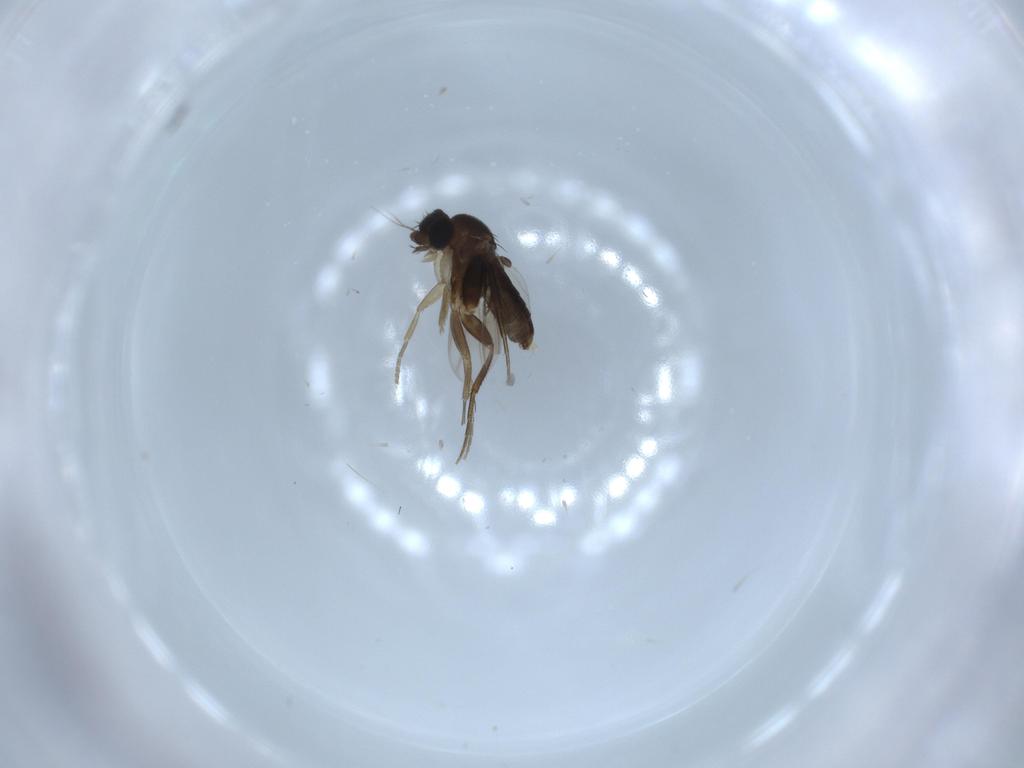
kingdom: Animalia
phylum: Arthropoda
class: Insecta
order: Diptera
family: Phoridae
